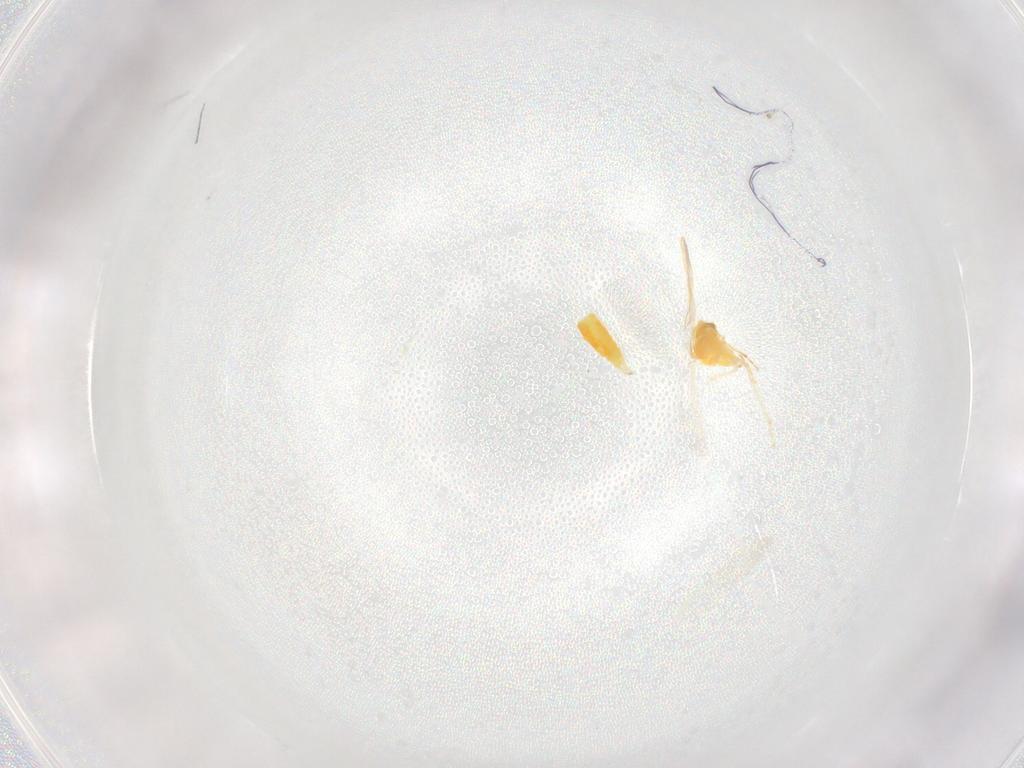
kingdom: Animalia
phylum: Arthropoda
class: Insecta
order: Hemiptera
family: Aleyrodidae
